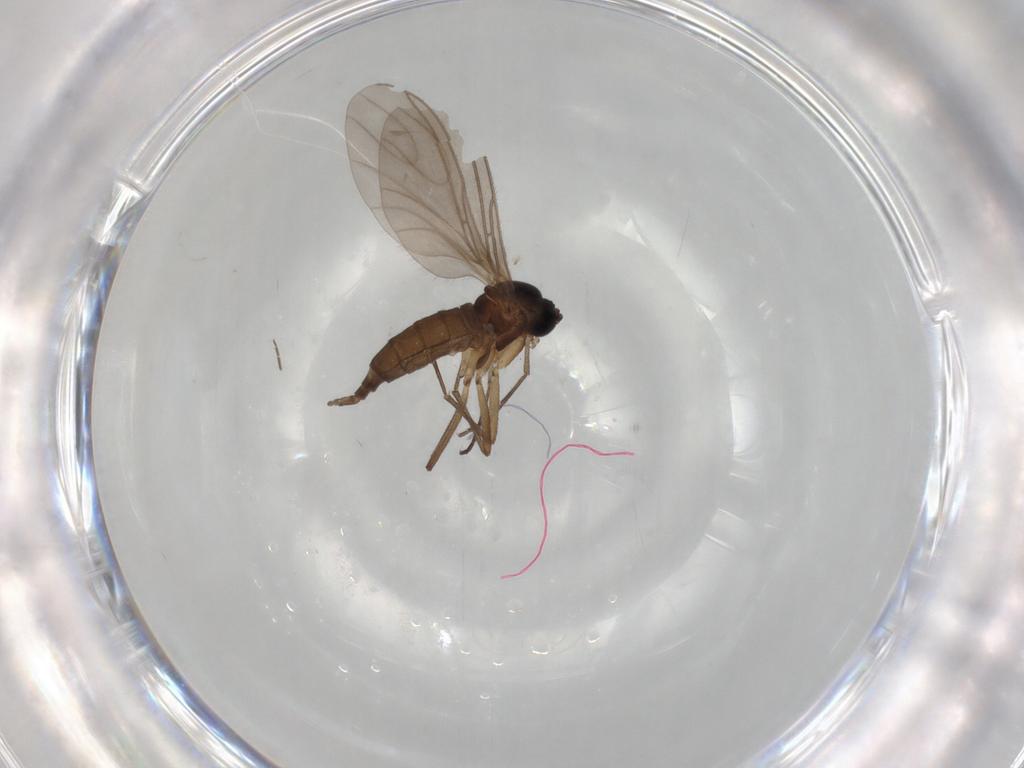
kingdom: Animalia
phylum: Arthropoda
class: Insecta
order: Diptera
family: Sciaridae
